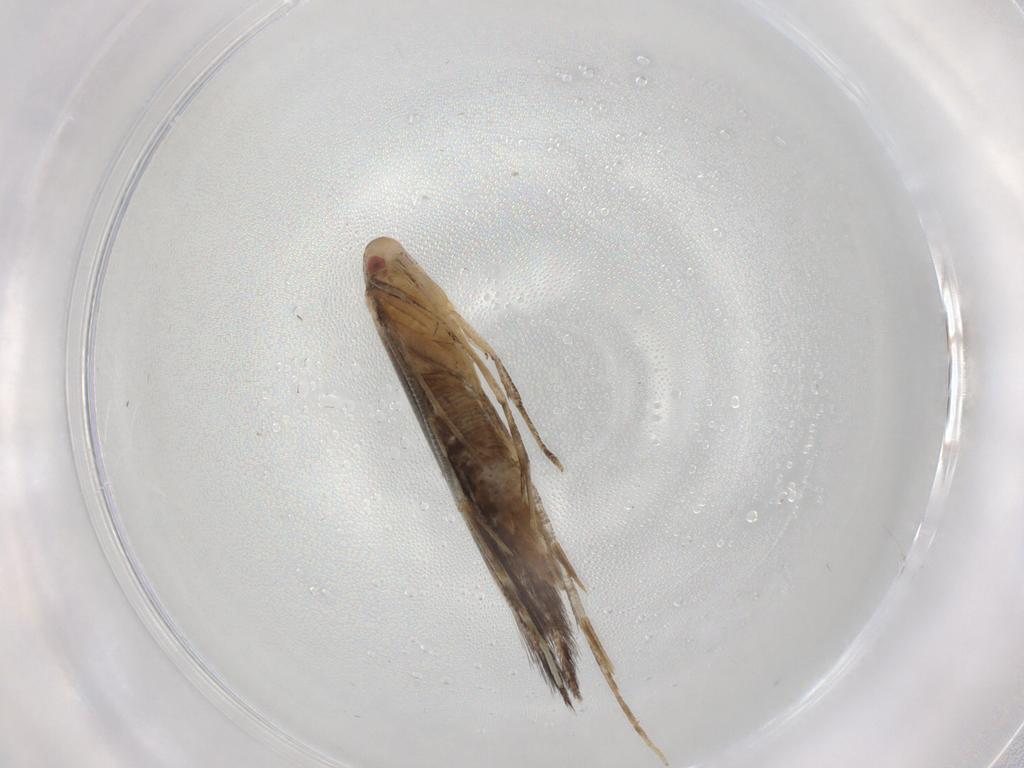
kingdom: Animalia
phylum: Arthropoda
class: Insecta
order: Lepidoptera
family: Cosmopterigidae
